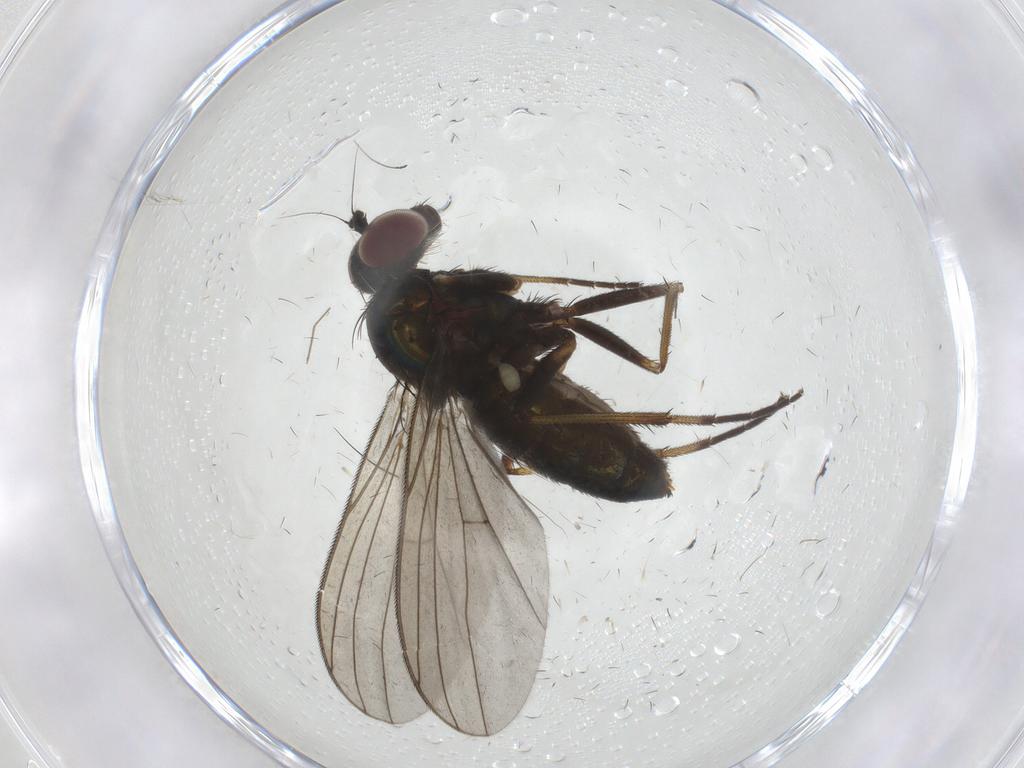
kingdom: Animalia
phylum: Arthropoda
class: Insecta
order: Diptera
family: Dolichopodidae
